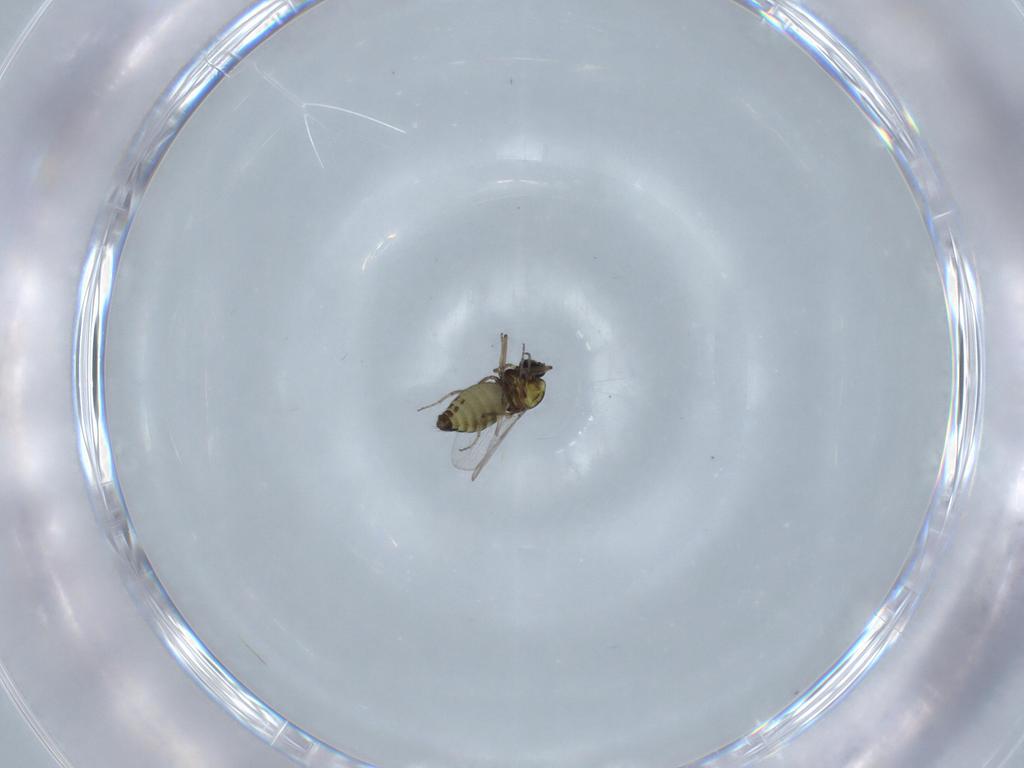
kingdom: Animalia
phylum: Arthropoda
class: Insecta
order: Diptera
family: Ceratopogonidae
